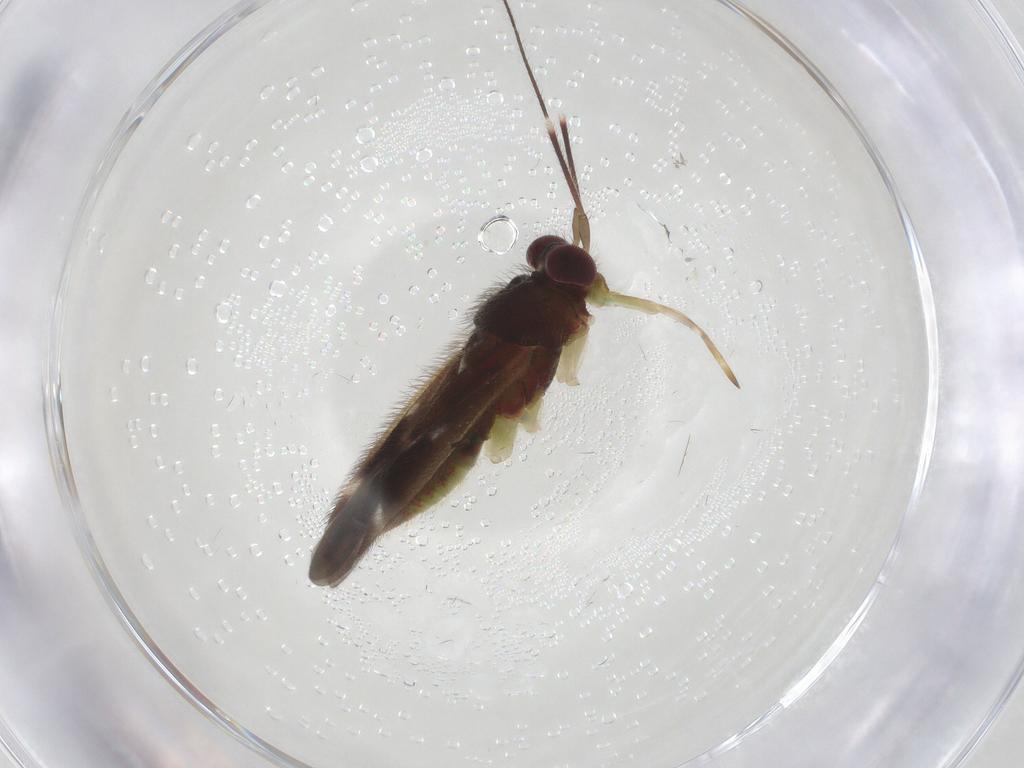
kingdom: Animalia
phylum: Arthropoda
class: Insecta
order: Hemiptera
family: Miridae
